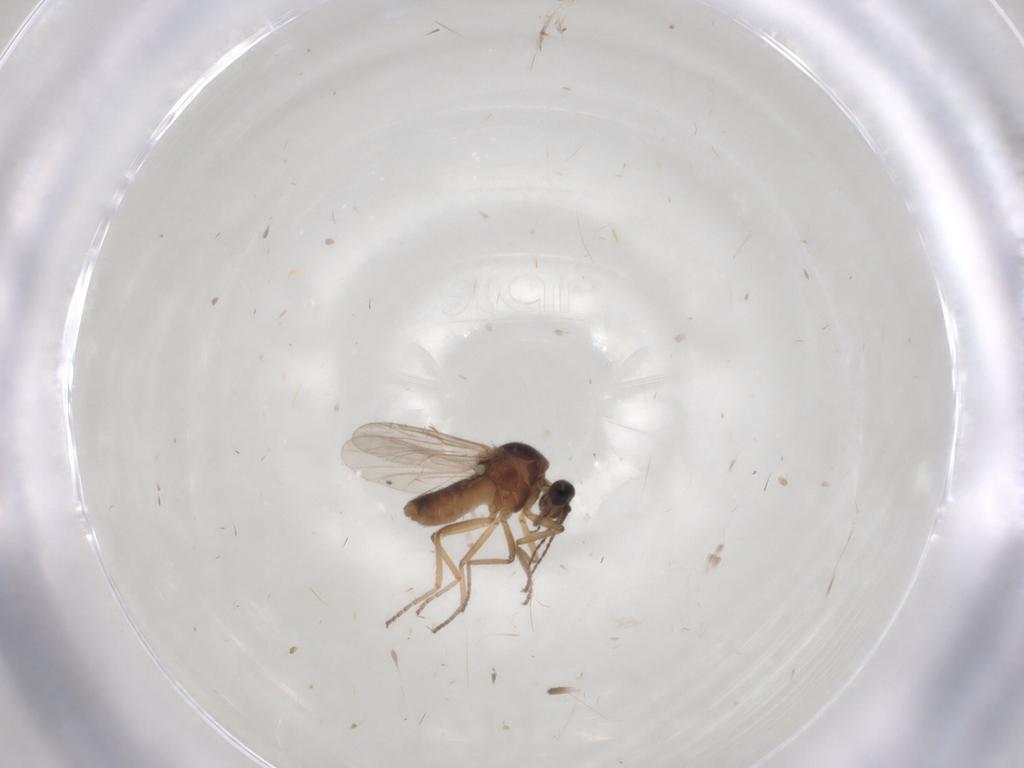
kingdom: Animalia
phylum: Arthropoda
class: Insecta
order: Diptera
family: Ceratopogonidae
